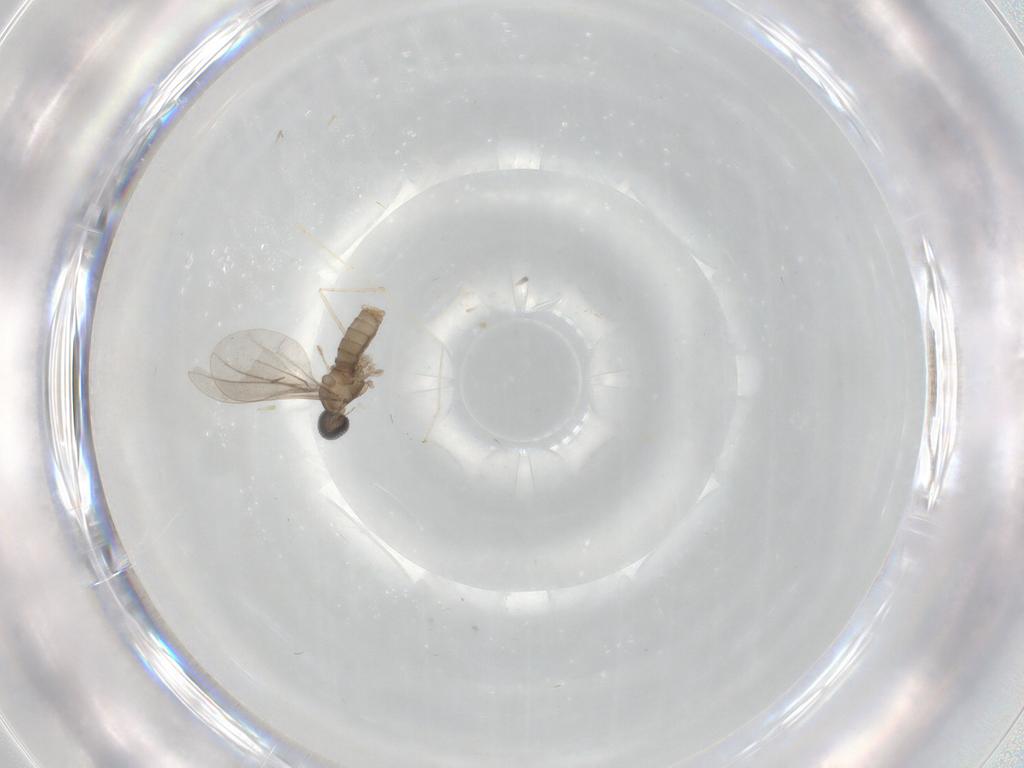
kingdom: Animalia
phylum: Arthropoda
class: Insecta
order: Diptera
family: Cecidomyiidae
